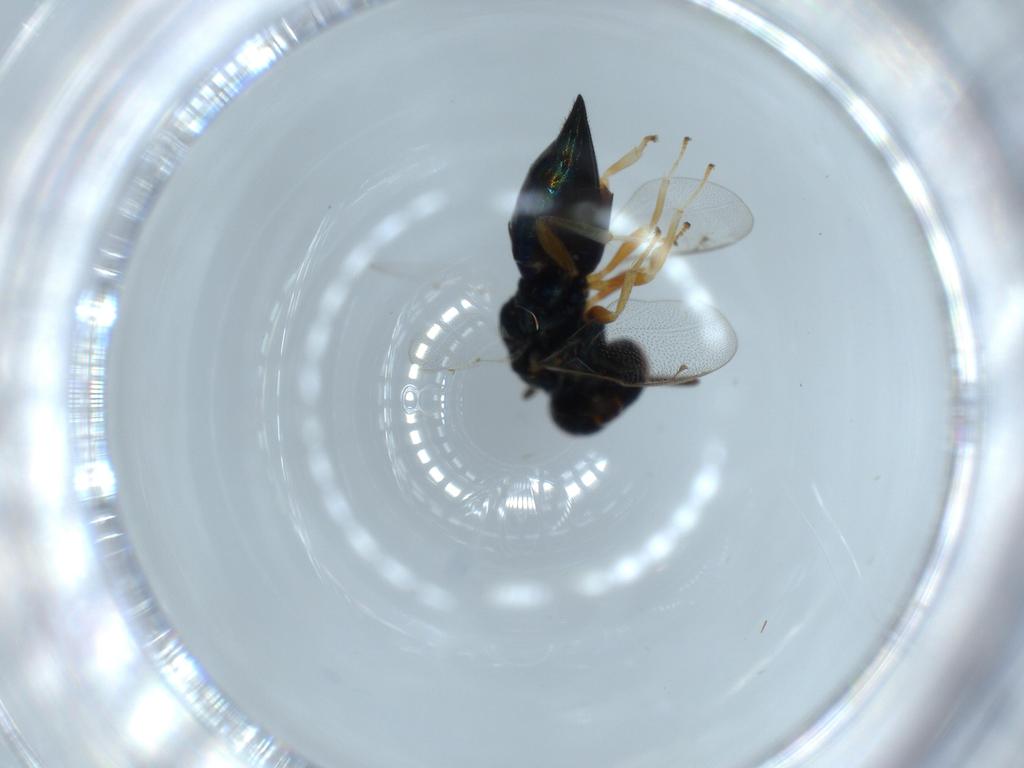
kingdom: Animalia
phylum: Arthropoda
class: Insecta
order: Hymenoptera
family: Pteromalidae
